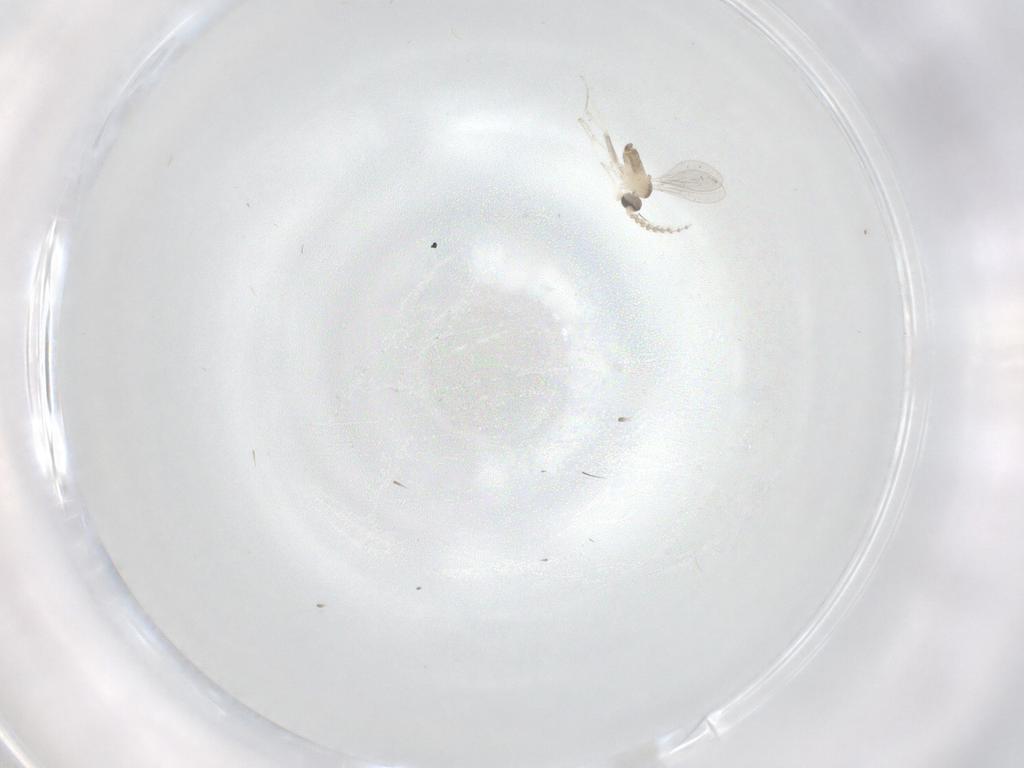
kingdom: Animalia
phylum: Arthropoda
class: Insecta
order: Diptera
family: Cecidomyiidae
